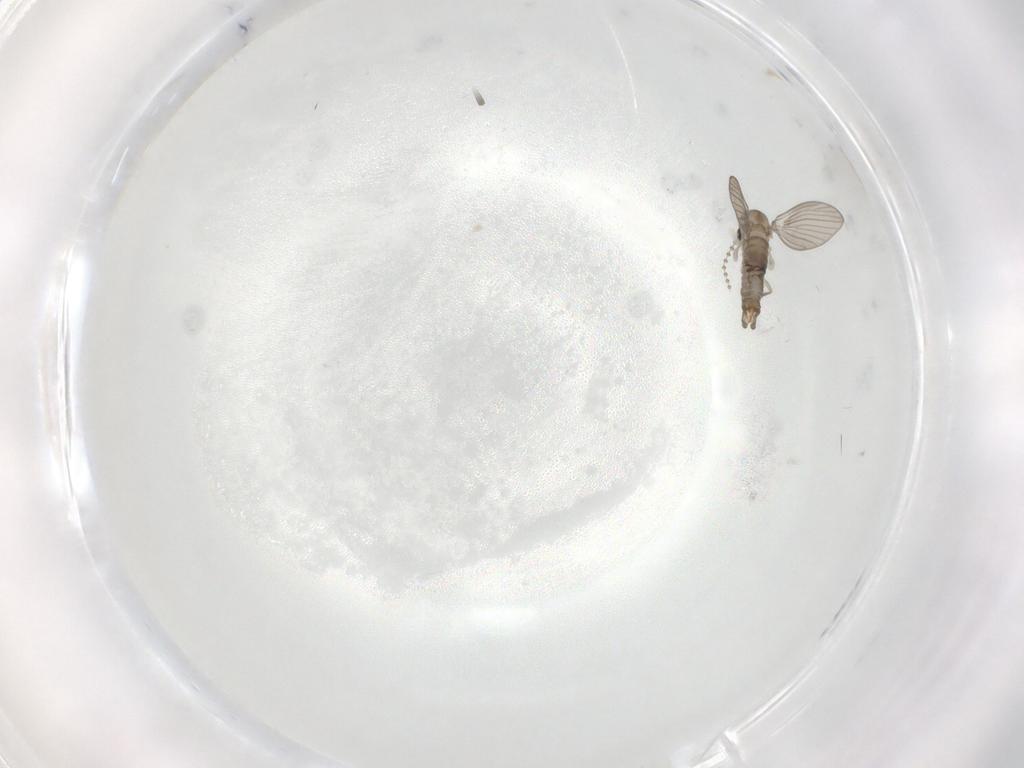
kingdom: Animalia
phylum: Arthropoda
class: Insecta
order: Diptera
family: Psychodidae
